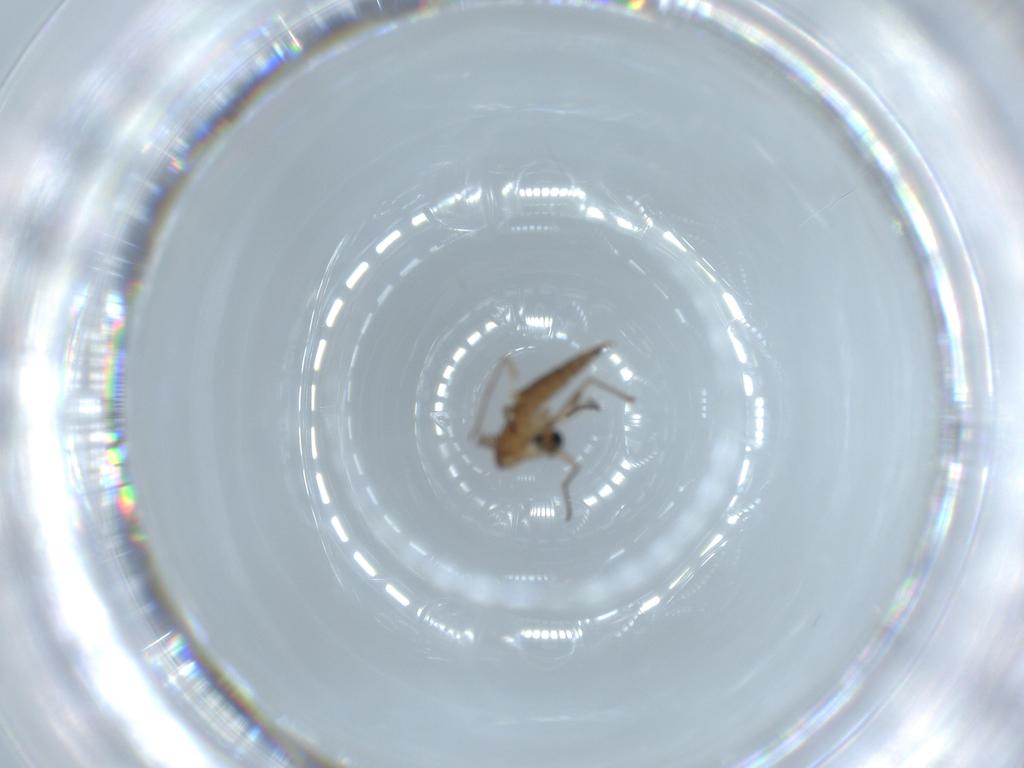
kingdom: Animalia
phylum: Arthropoda
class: Insecta
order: Diptera
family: Sciaridae
